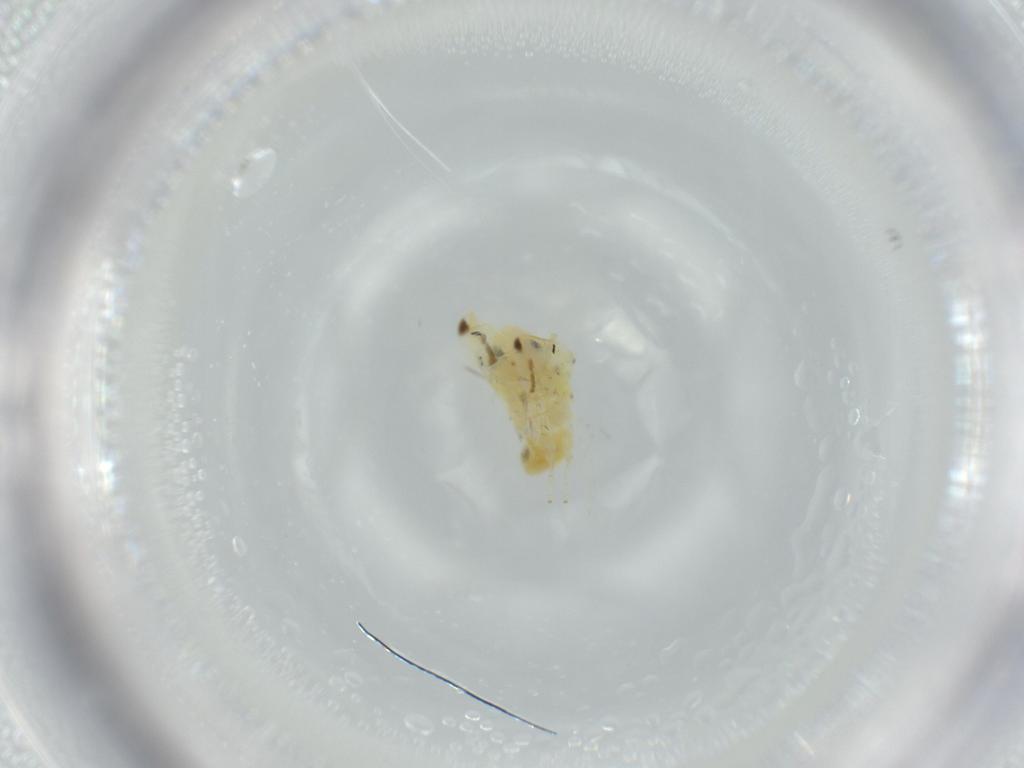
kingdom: Animalia
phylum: Arthropoda
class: Insecta
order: Hemiptera
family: Cicadellidae
